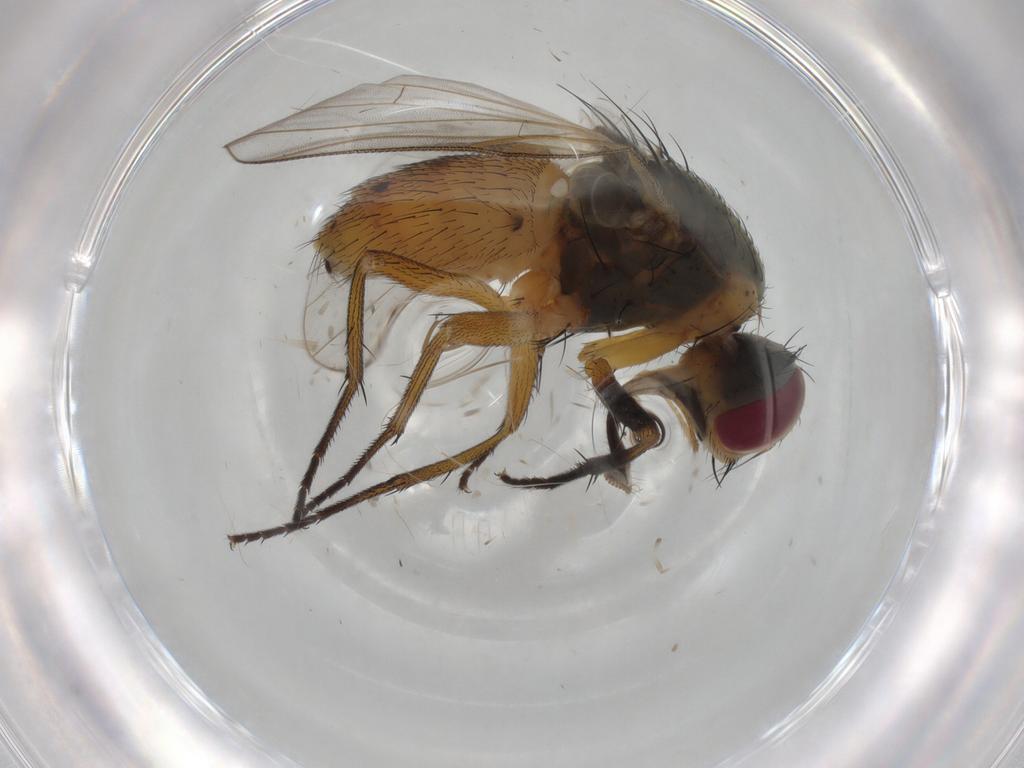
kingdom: Animalia
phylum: Arthropoda
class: Insecta
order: Diptera
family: Muscidae
